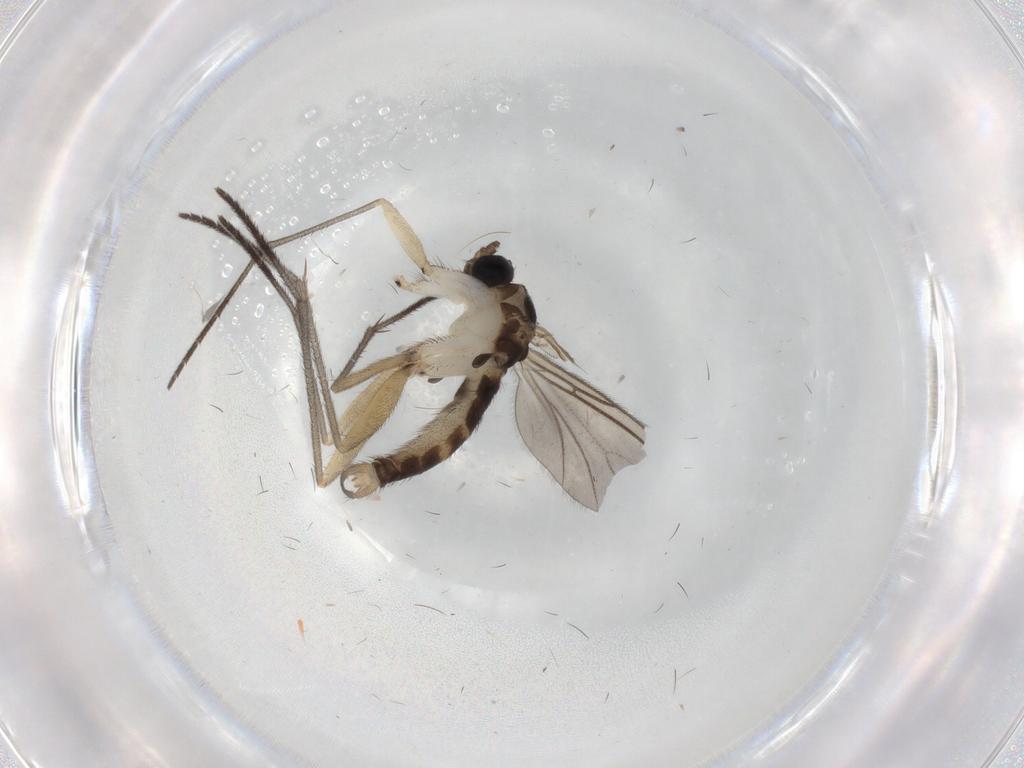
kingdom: Animalia
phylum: Arthropoda
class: Insecta
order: Diptera
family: Sciaridae
